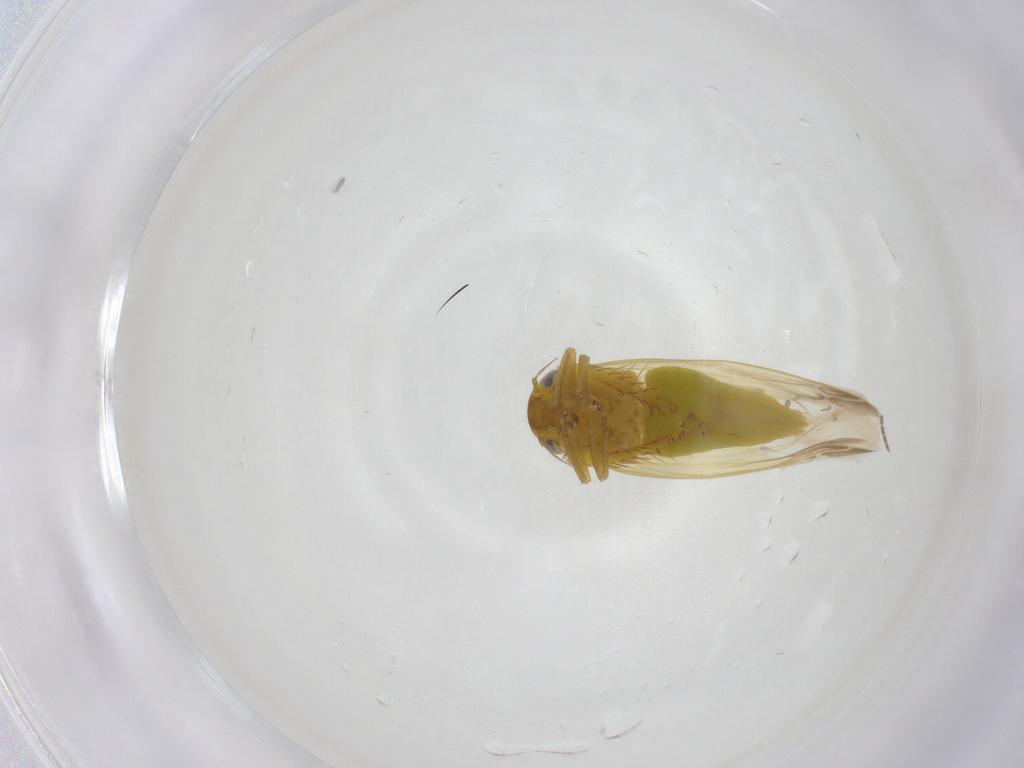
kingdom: Animalia
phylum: Arthropoda
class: Insecta
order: Hemiptera
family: Cicadellidae
